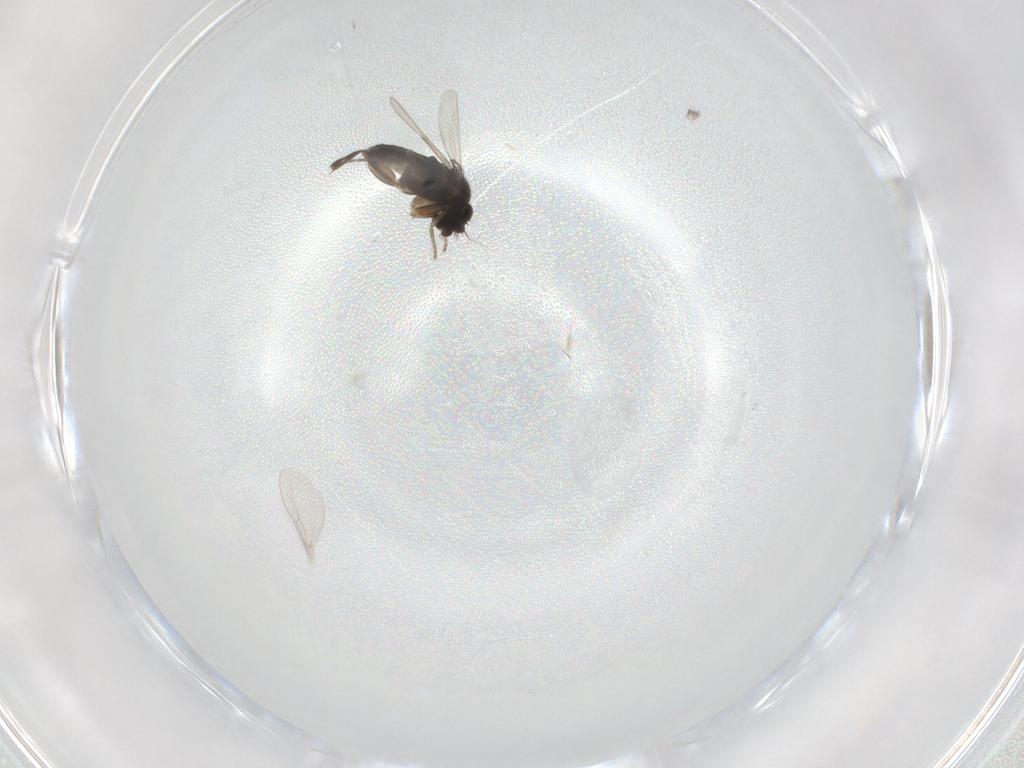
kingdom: Animalia
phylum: Arthropoda
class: Insecta
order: Diptera
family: Phoridae
